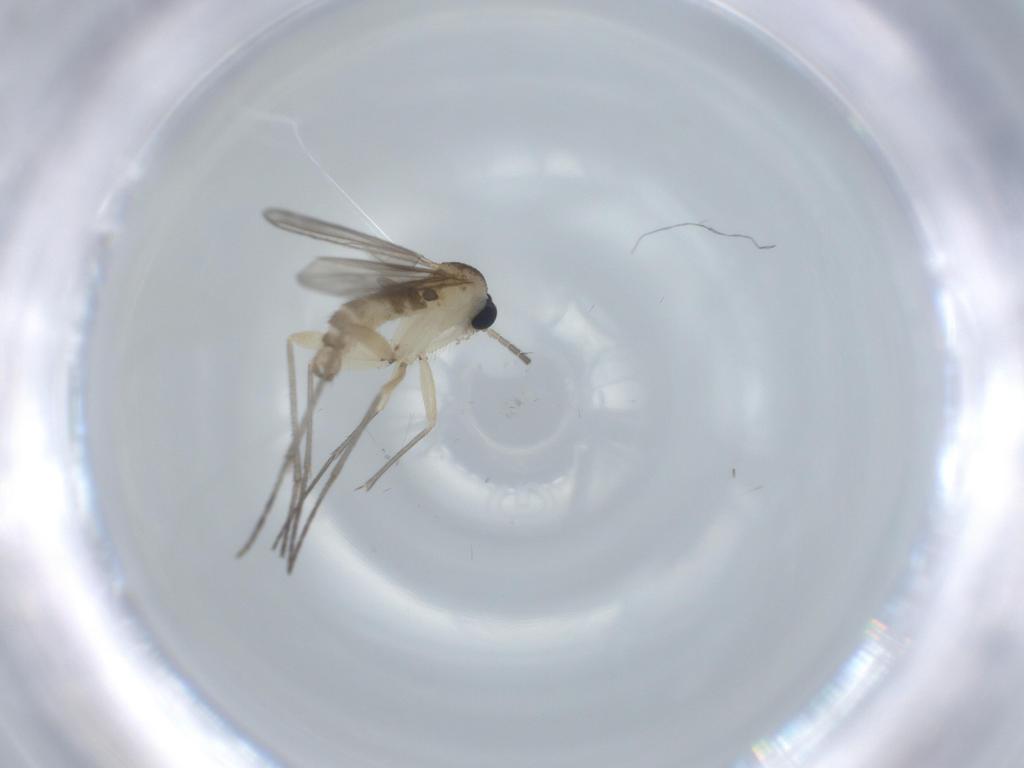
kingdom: Animalia
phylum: Arthropoda
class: Insecta
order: Diptera
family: Sciaridae
